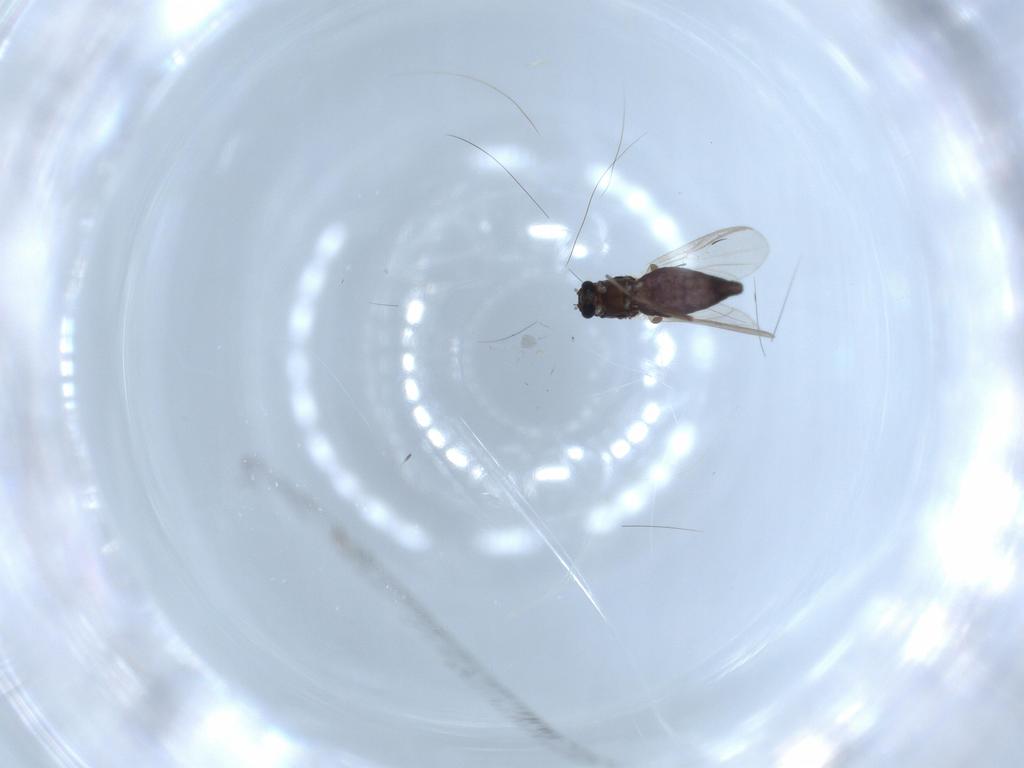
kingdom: Animalia
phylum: Arthropoda
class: Insecta
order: Diptera
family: Chironomidae
